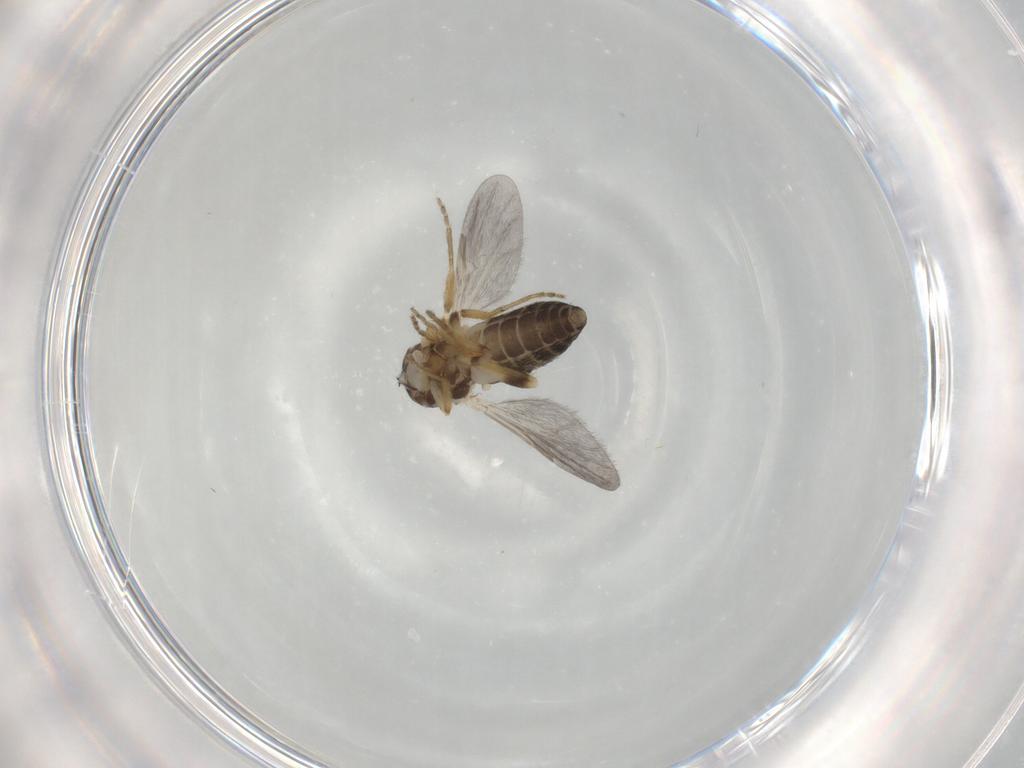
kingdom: Animalia
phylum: Arthropoda
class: Insecta
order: Diptera
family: Ceratopogonidae
